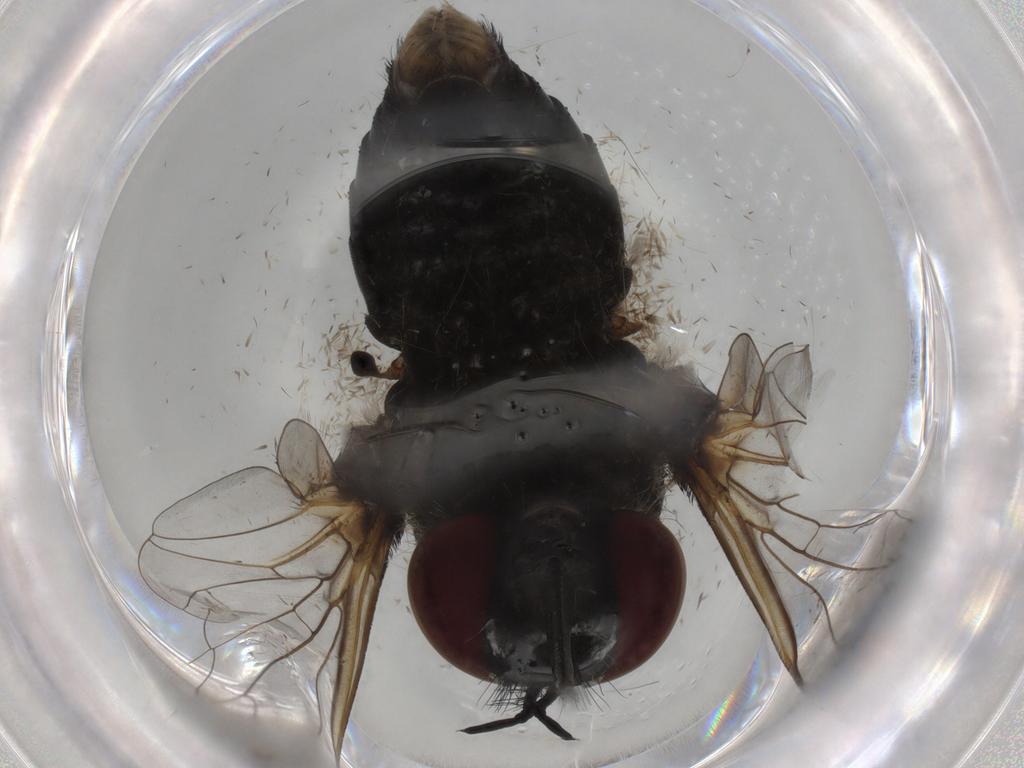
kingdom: Animalia
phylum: Arthropoda
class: Insecta
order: Diptera
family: Bombyliidae
